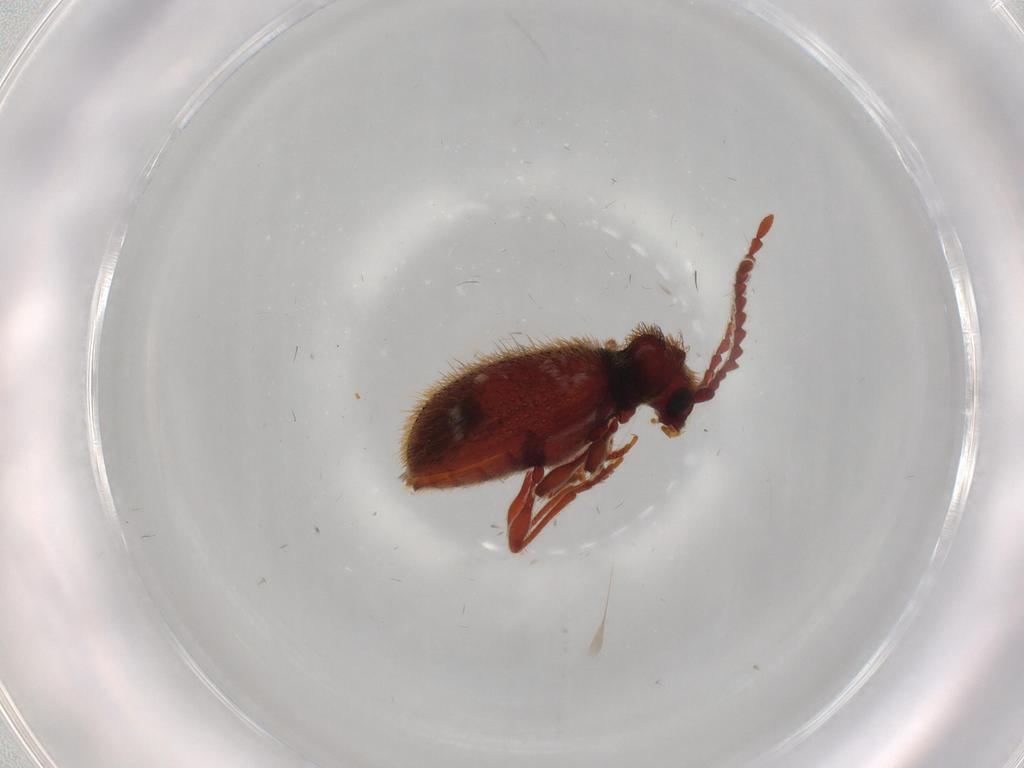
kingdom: Animalia
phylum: Arthropoda
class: Insecta
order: Coleoptera
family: Ptinidae
